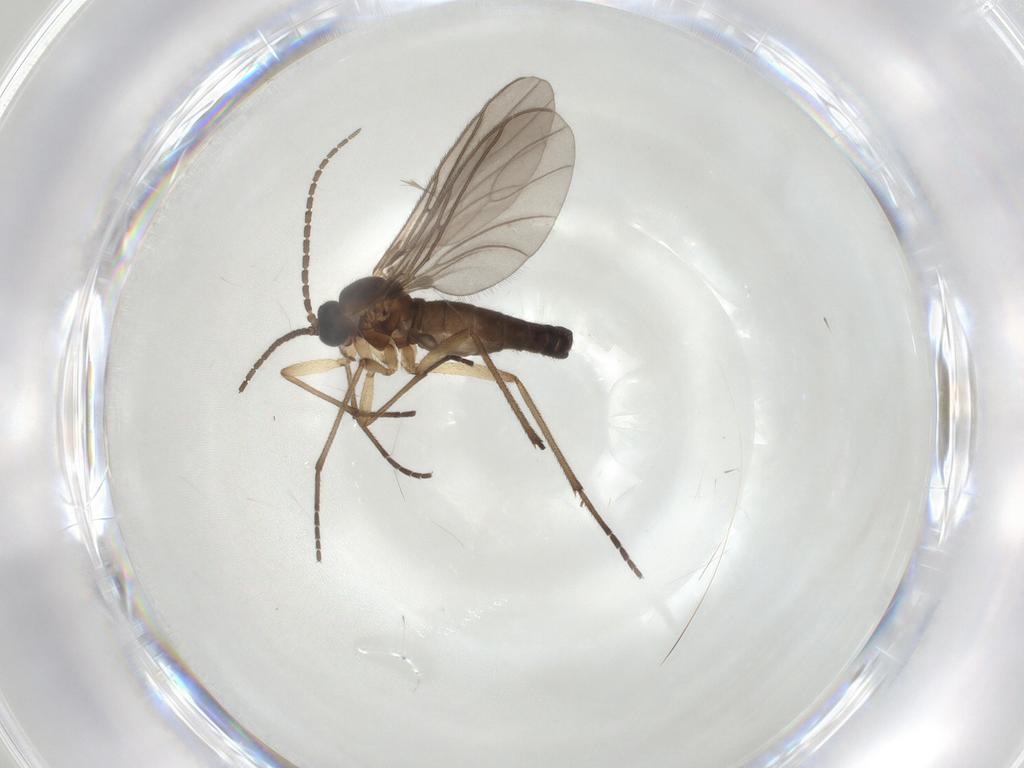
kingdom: Animalia
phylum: Arthropoda
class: Insecta
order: Diptera
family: Sciaridae
